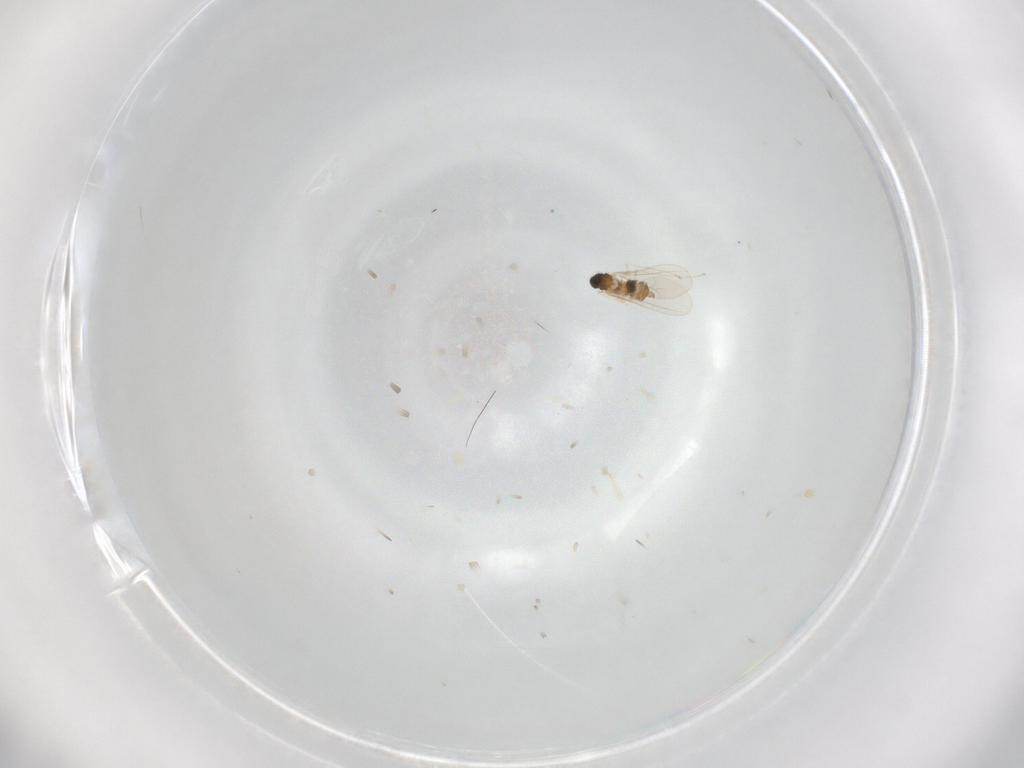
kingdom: Animalia
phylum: Arthropoda
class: Insecta
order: Diptera
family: Cecidomyiidae
